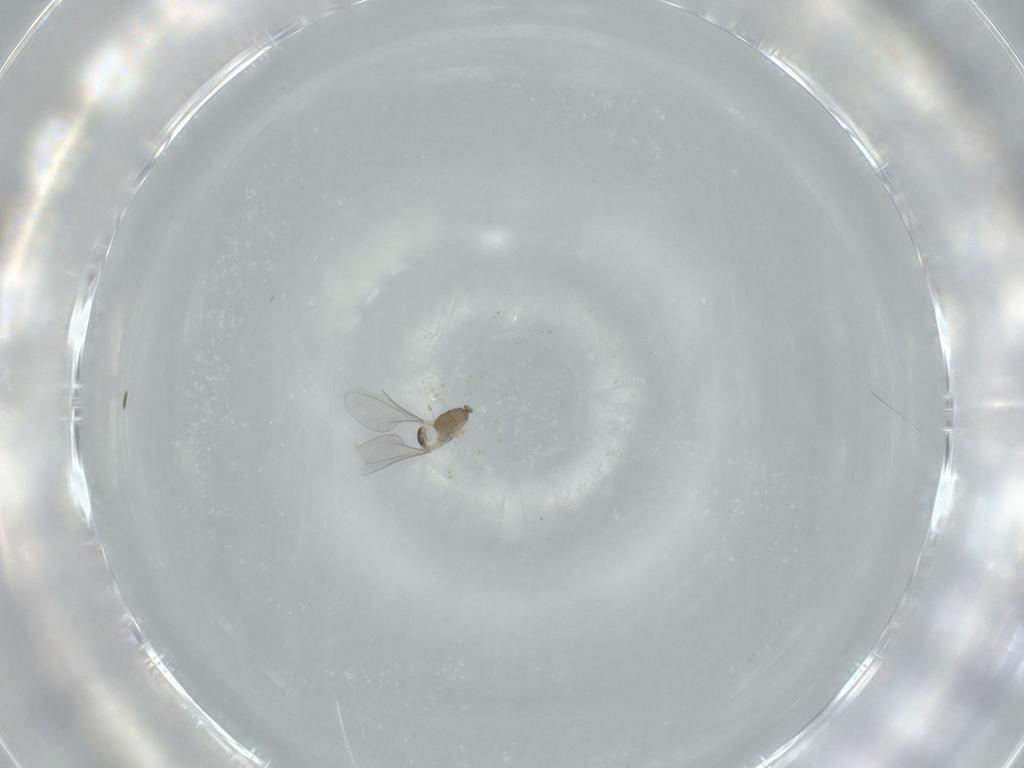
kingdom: Animalia
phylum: Arthropoda
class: Insecta
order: Diptera
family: Cecidomyiidae
